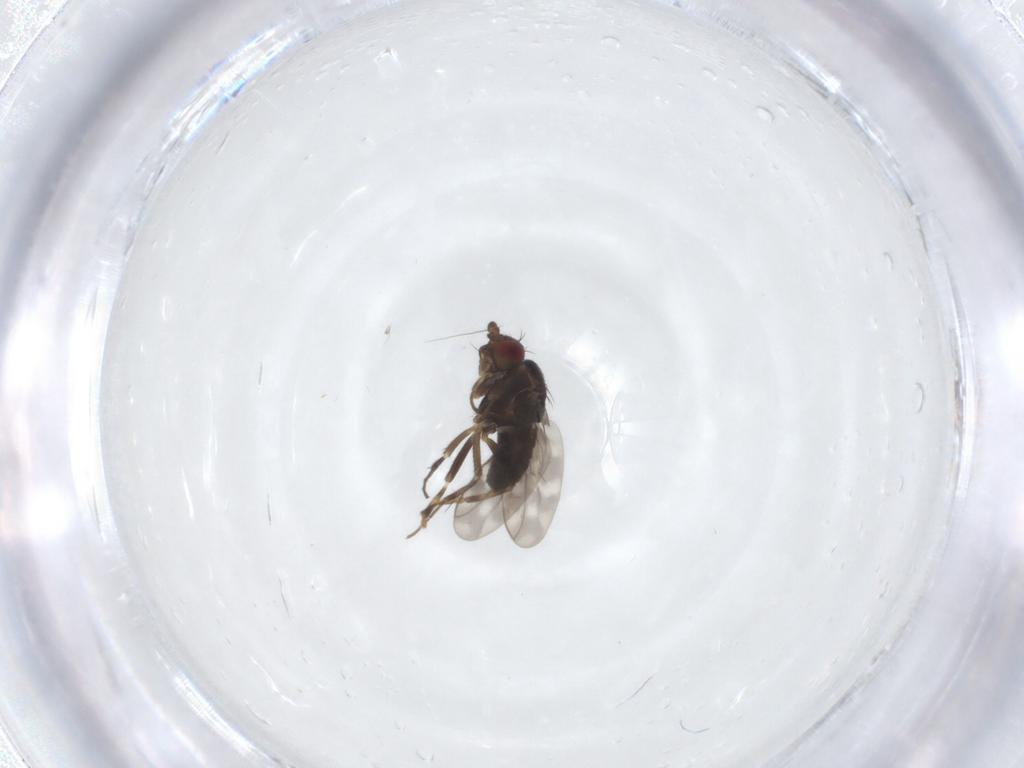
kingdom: Animalia
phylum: Arthropoda
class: Insecta
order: Diptera
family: Sphaeroceridae
